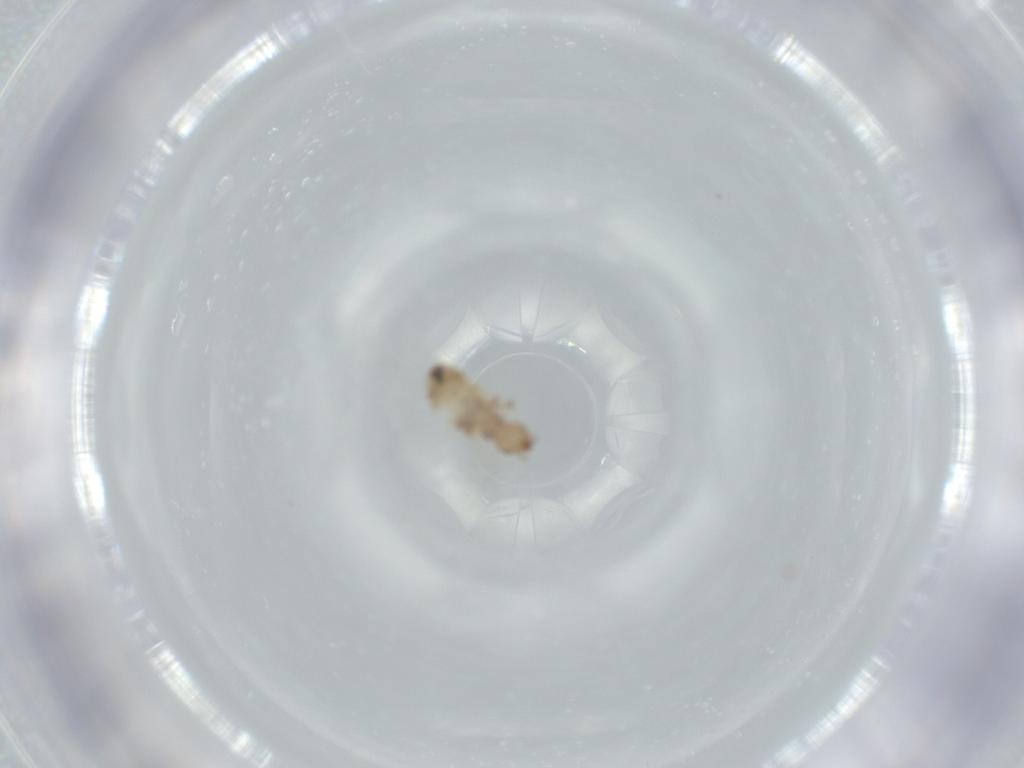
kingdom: Animalia
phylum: Arthropoda
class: Insecta
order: Psocodea
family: Liposcelididae
